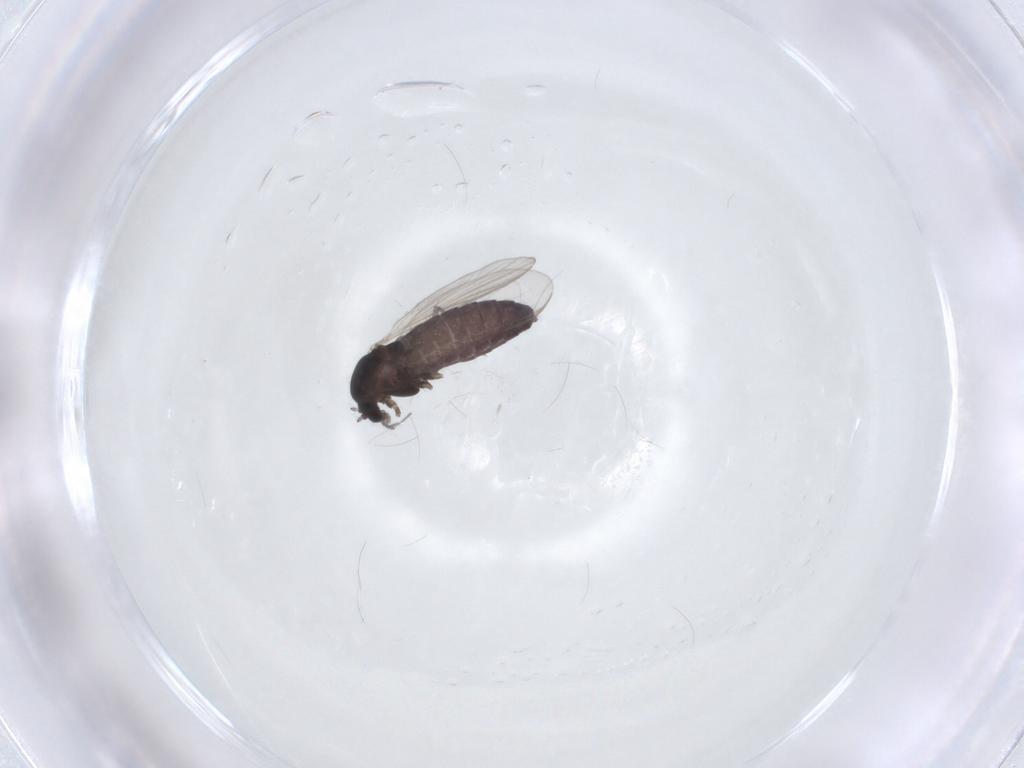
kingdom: Animalia
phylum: Arthropoda
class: Insecta
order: Diptera
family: Chironomidae
